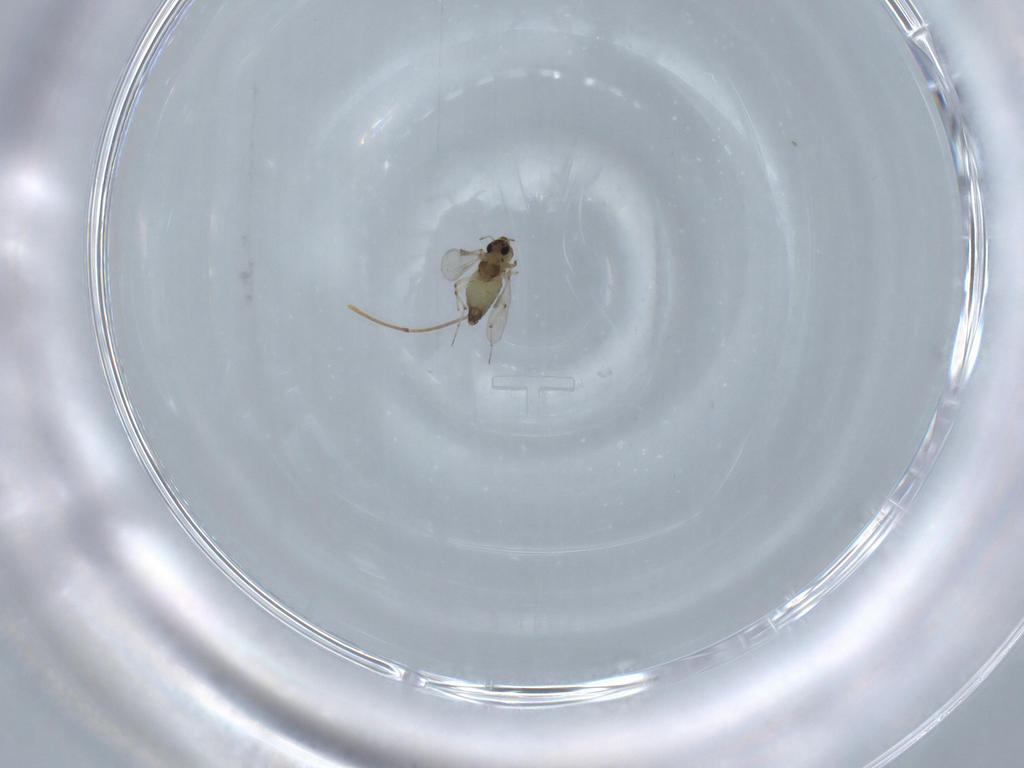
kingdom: Animalia
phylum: Arthropoda
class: Insecta
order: Diptera
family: Chironomidae
